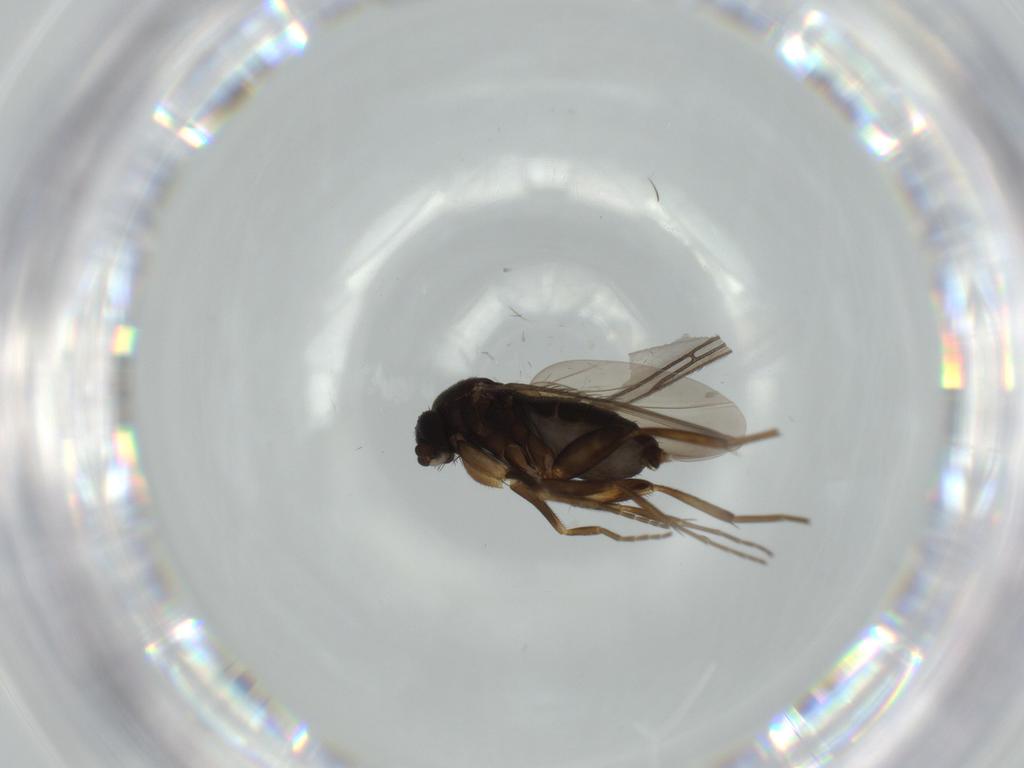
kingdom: Animalia
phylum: Arthropoda
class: Insecta
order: Diptera
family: Phoridae
